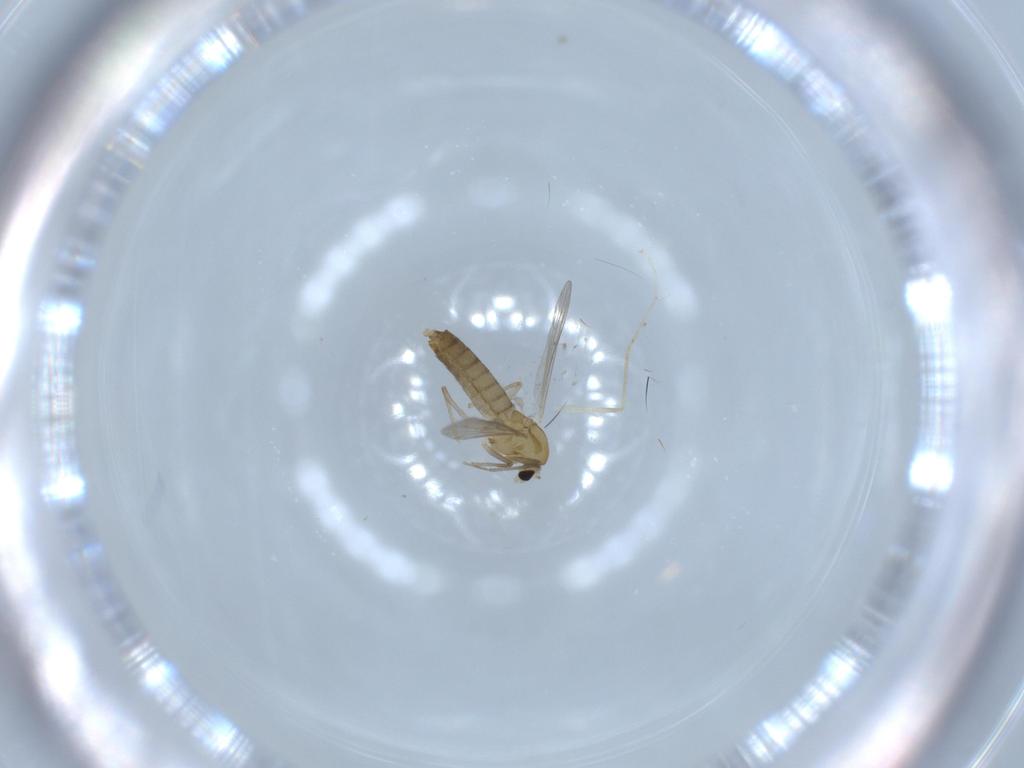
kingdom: Animalia
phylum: Arthropoda
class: Insecta
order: Diptera
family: Chironomidae
